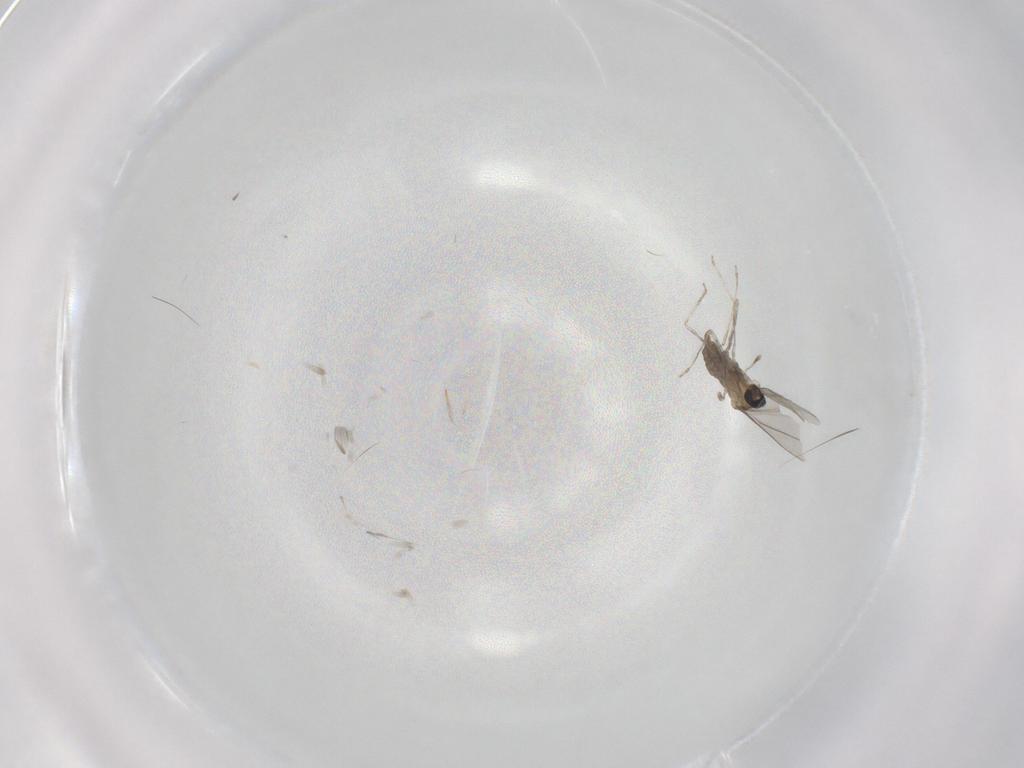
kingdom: Animalia
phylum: Arthropoda
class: Insecta
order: Diptera
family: Cecidomyiidae
